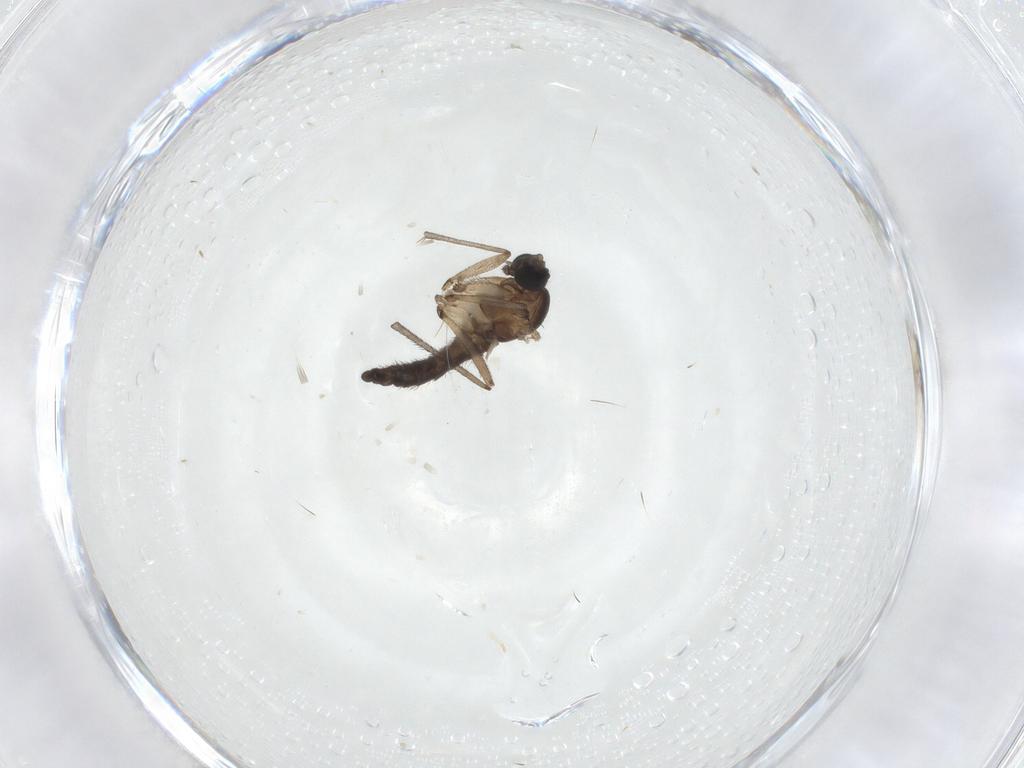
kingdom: Animalia
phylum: Arthropoda
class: Insecta
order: Diptera
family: Sciaridae
